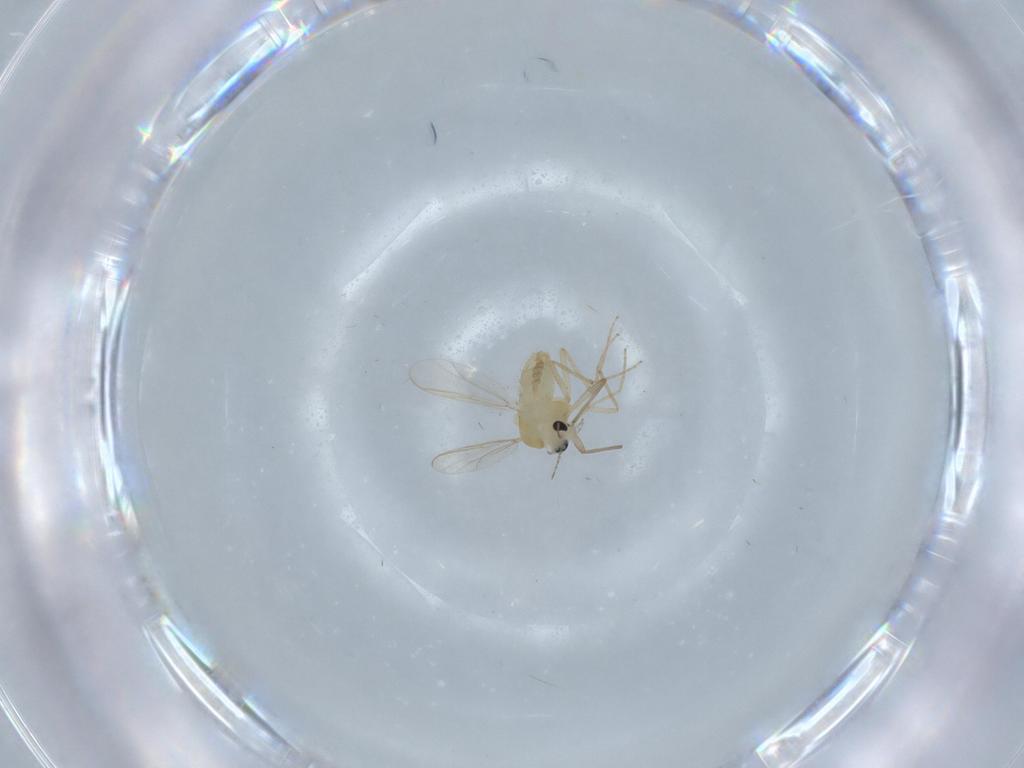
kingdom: Animalia
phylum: Arthropoda
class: Insecta
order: Diptera
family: Chironomidae
